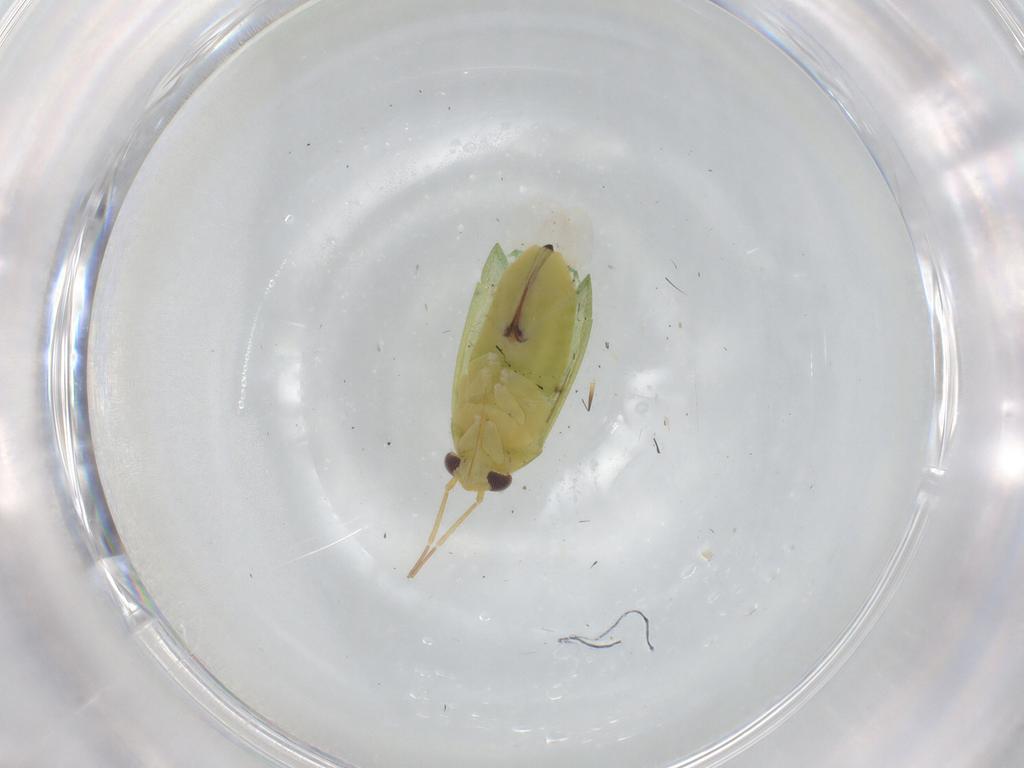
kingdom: Animalia
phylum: Arthropoda
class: Insecta
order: Hemiptera
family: Miridae
